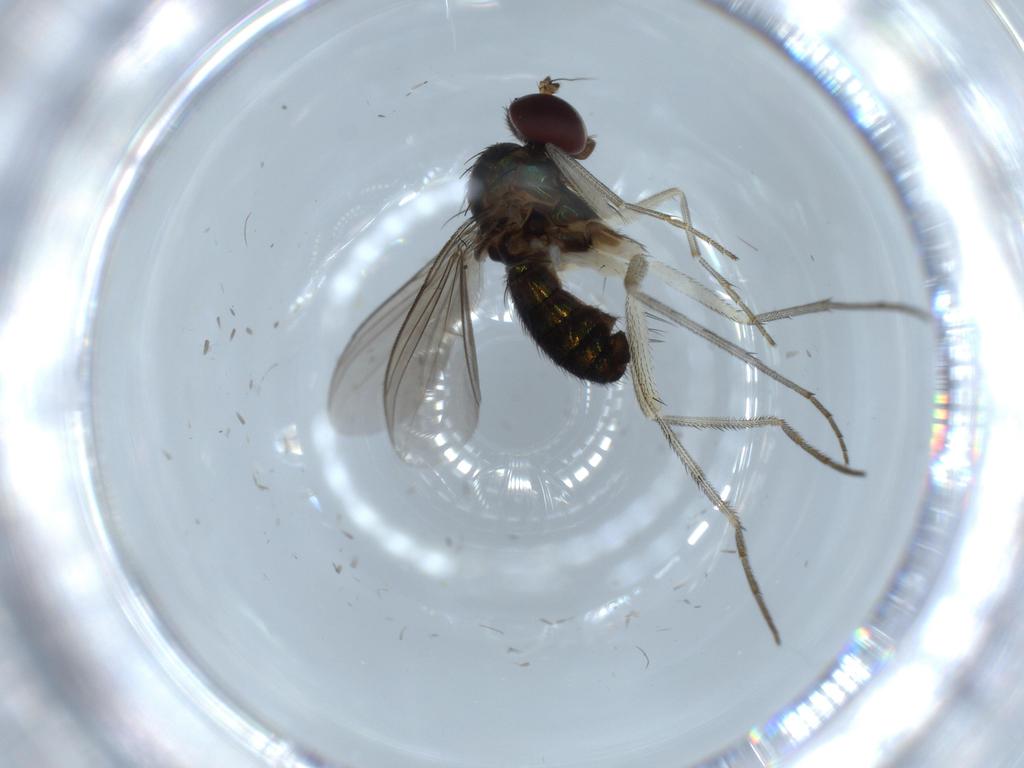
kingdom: Animalia
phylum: Arthropoda
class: Insecta
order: Diptera
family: Dolichopodidae
